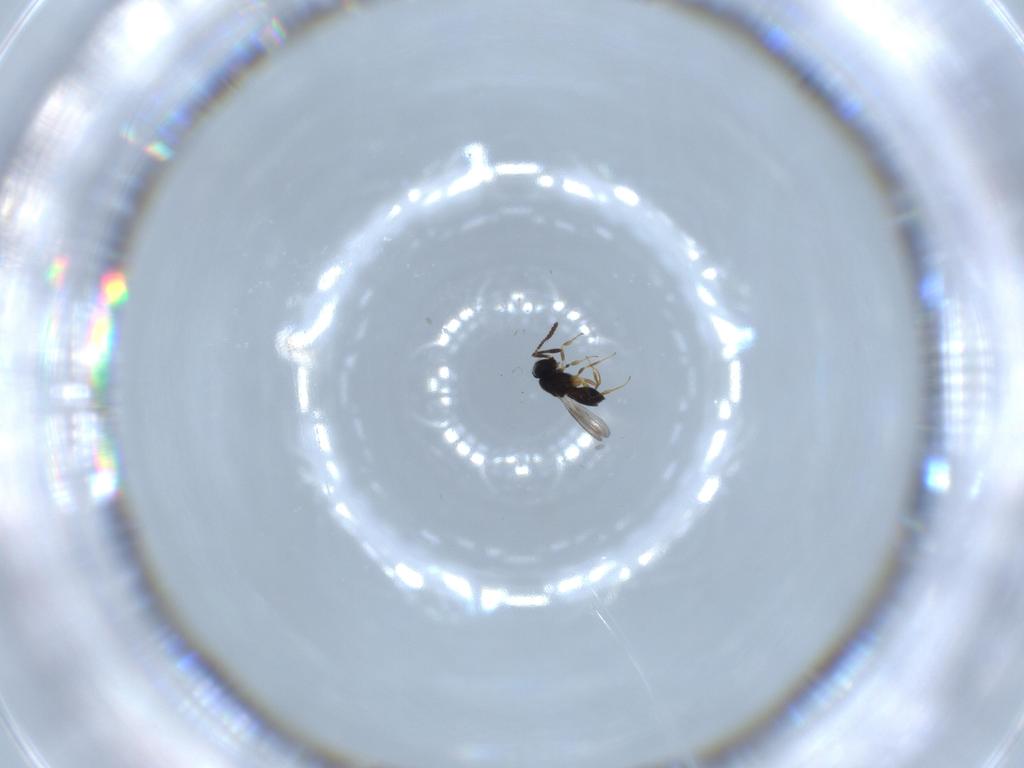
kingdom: Animalia
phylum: Arthropoda
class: Insecta
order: Hymenoptera
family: Scelionidae
